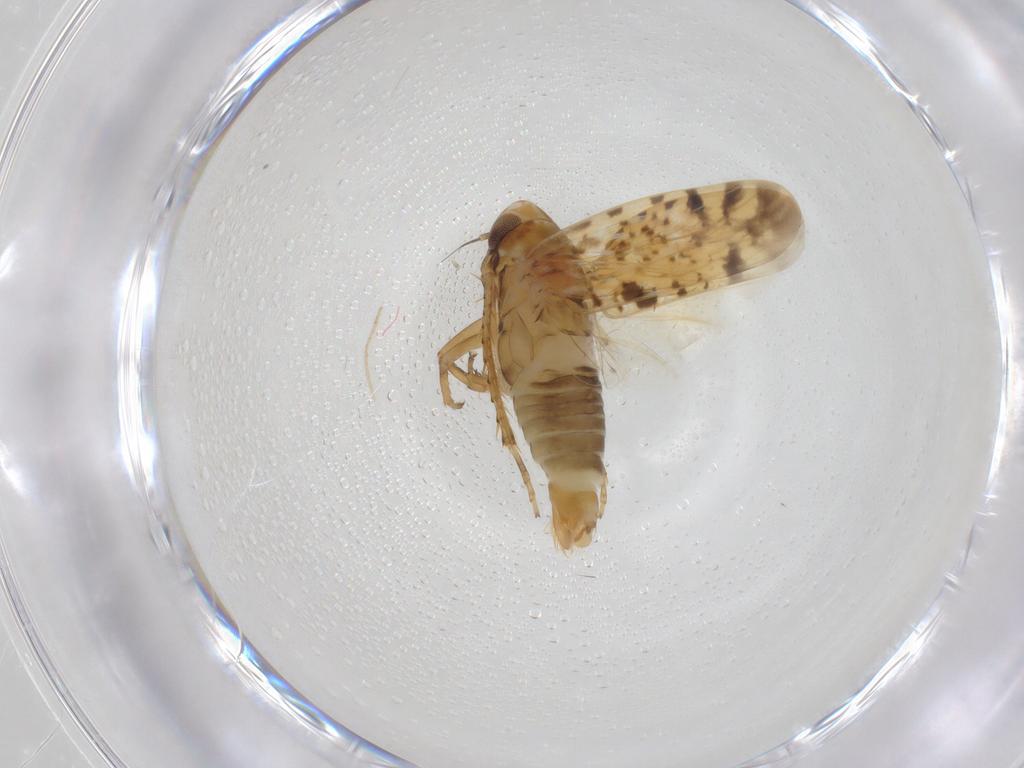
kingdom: Animalia
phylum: Arthropoda
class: Insecta
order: Hemiptera
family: Cicadellidae
